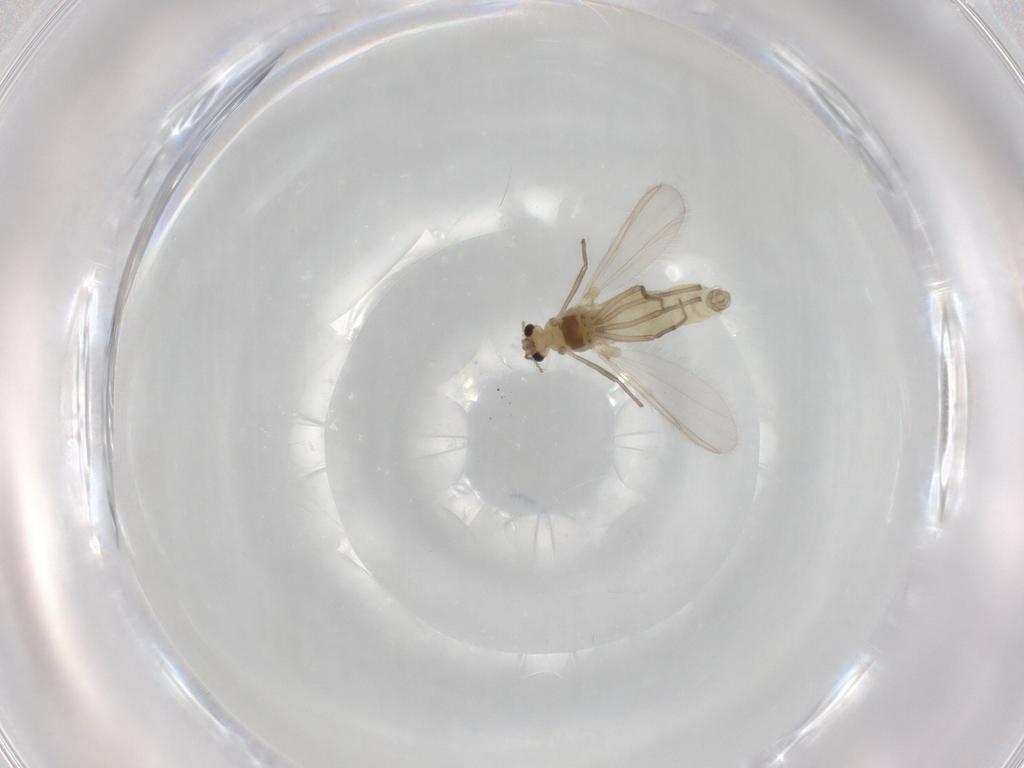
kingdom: Animalia
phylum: Arthropoda
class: Insecta
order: Diptera
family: Chironomidae
